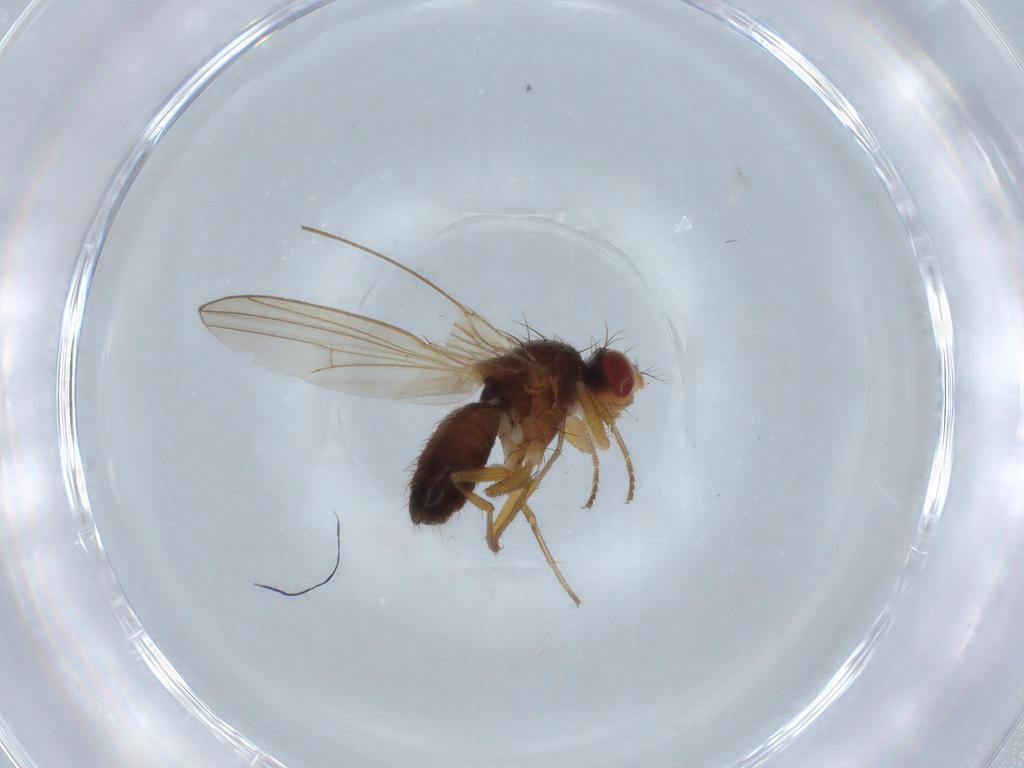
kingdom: Animalia
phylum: Arthropoda
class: Insecta
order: Diptera
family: Drosophilidae
